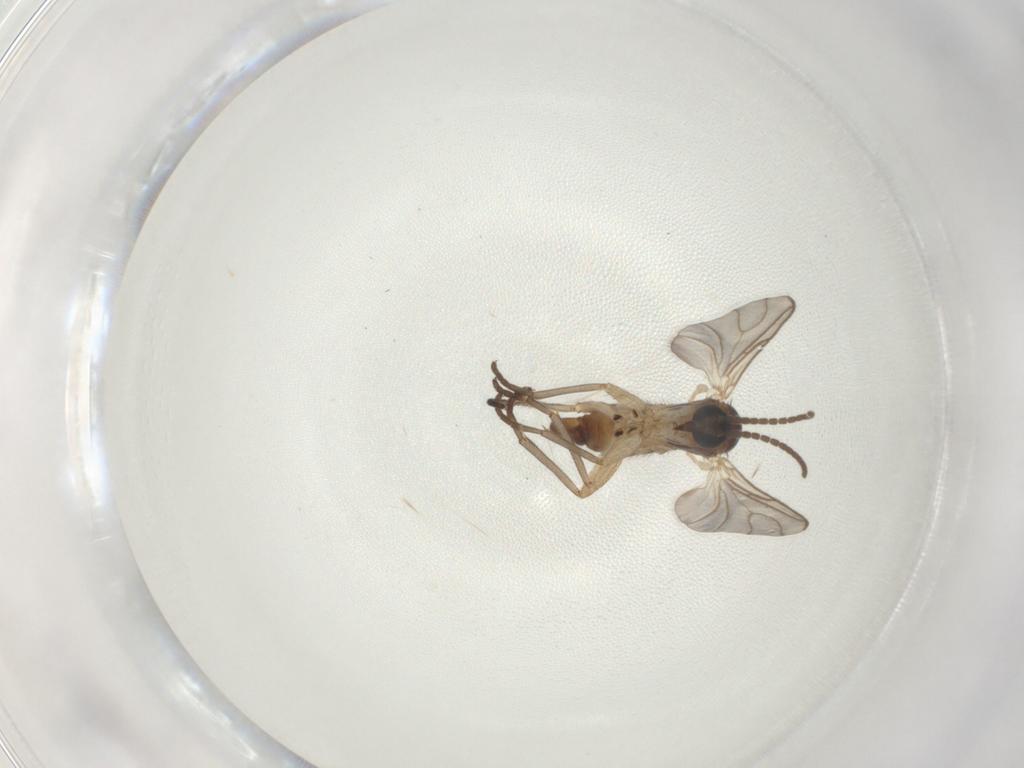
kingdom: Animalia
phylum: Arthropoda
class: Insecta
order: Diptera
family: Sciaridae
